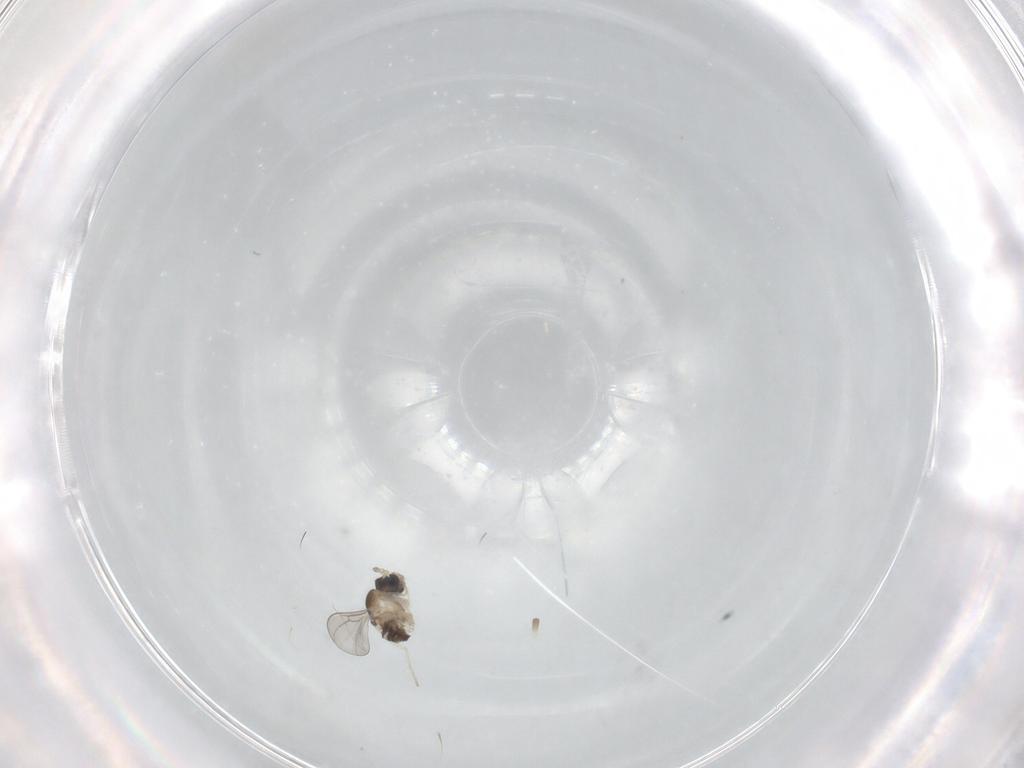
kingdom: Animalia
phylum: Arthropoda
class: Insecta
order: Diptera
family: Cecidomyiidae
